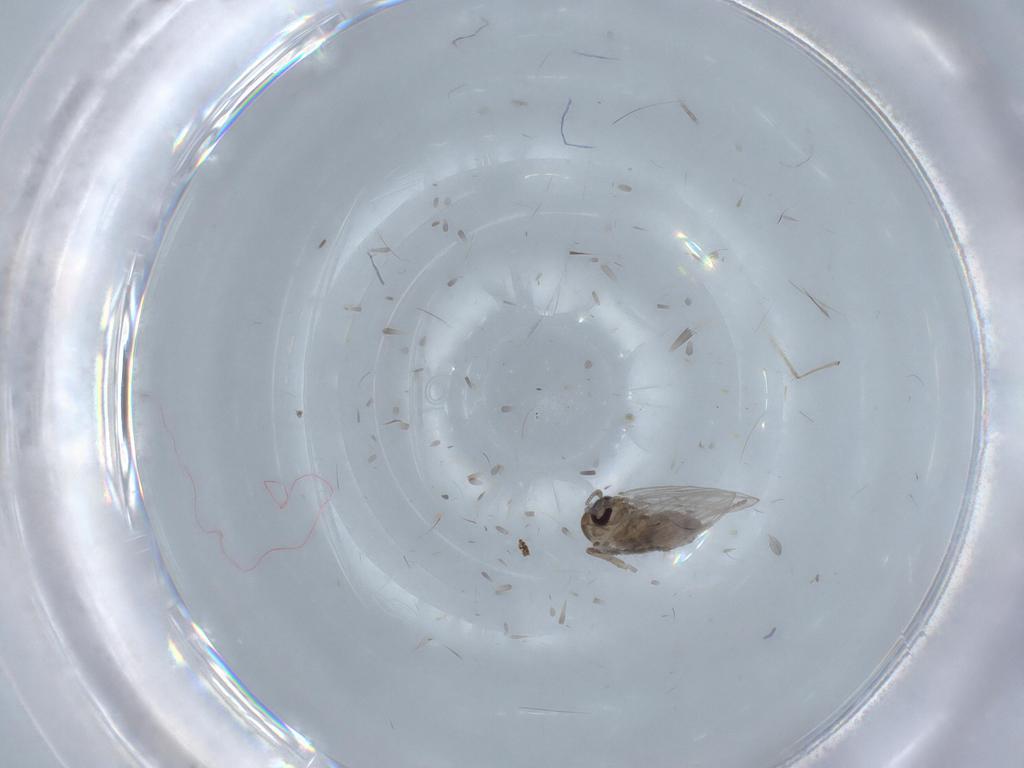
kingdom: Animalia
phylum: Arthropoda
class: Insecta
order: Diptera
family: Psychodidae
